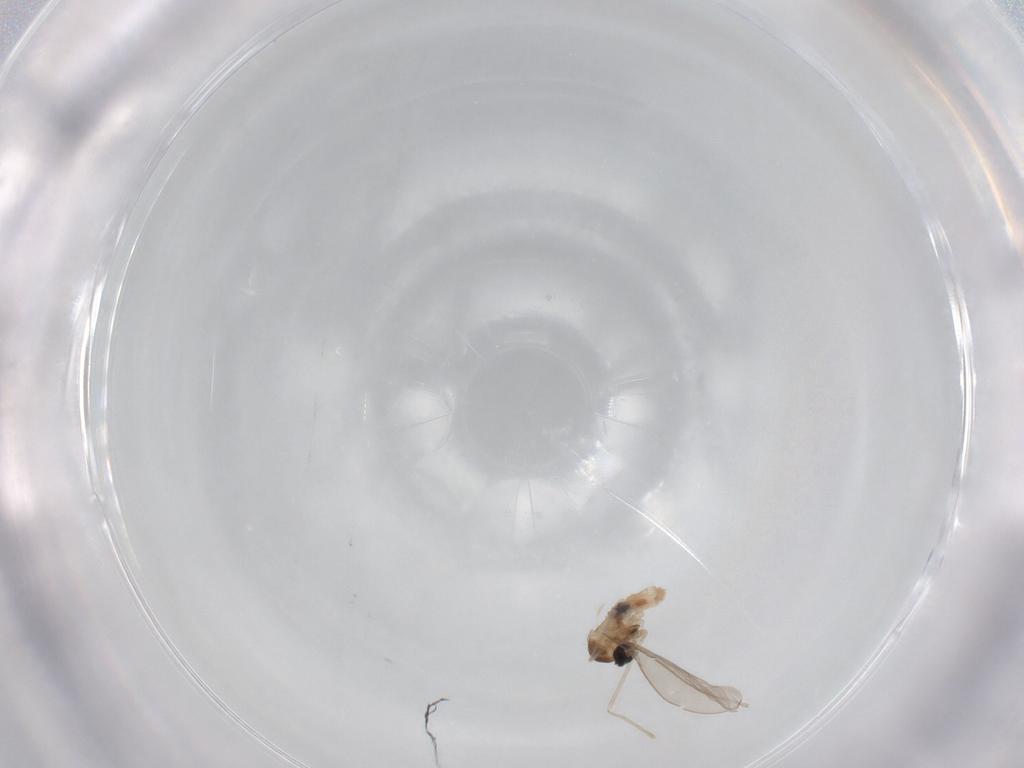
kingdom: Animalia
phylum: Arthropoda
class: Insecta
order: Diptera
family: Cecidomyiidae
